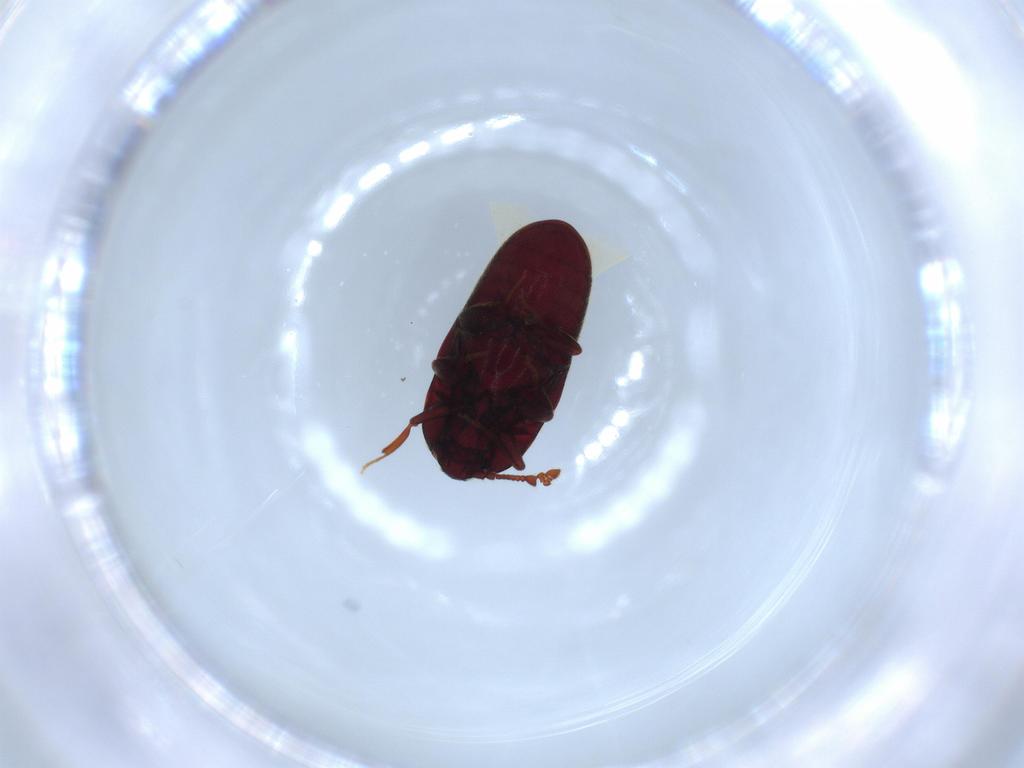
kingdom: Animalia
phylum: Arthropoda
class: Insecta
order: Coleoptera
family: Throscidae
